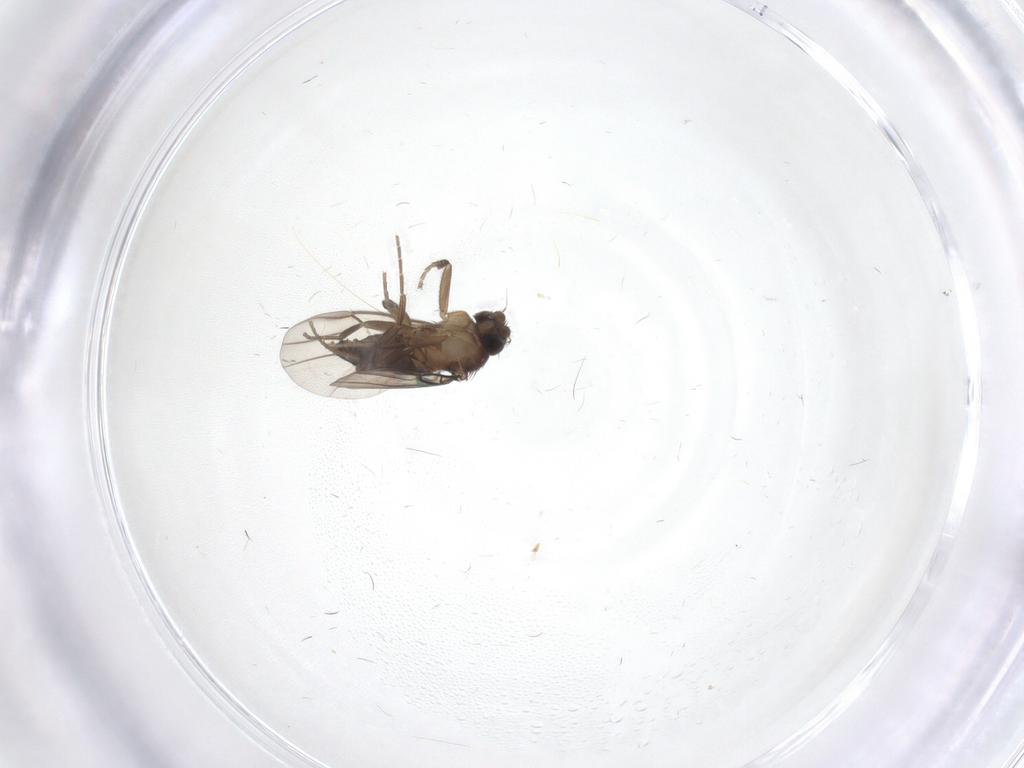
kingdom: Animalia
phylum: Arthropoda
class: Insecta
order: Diptera
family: Phoridae
